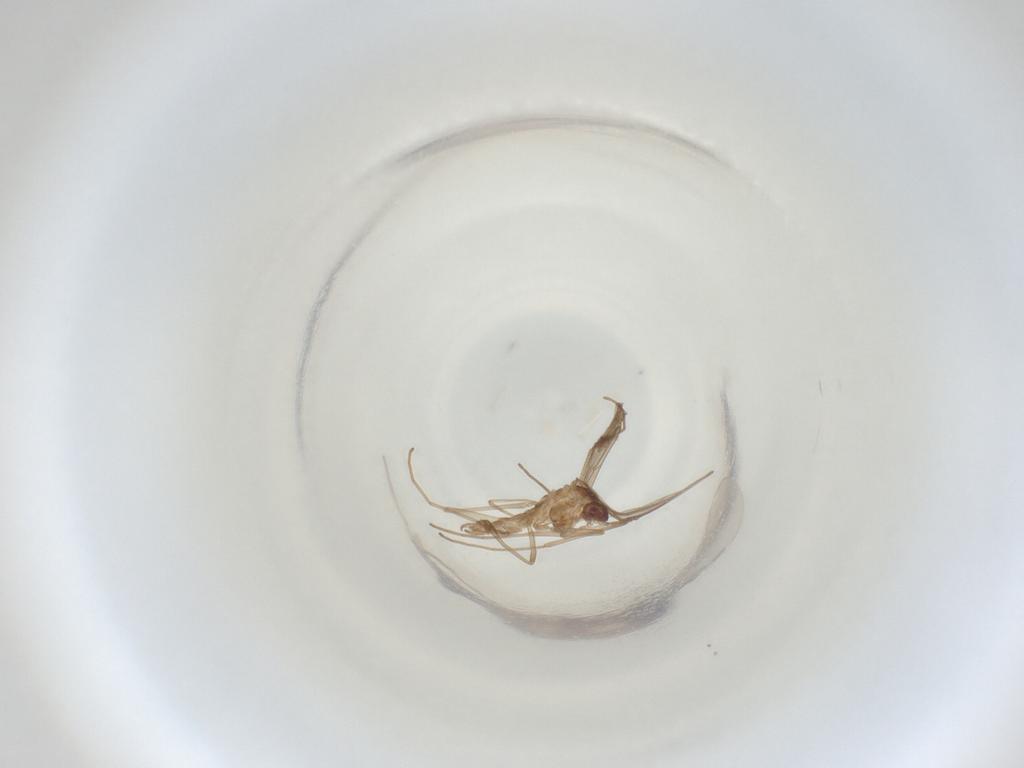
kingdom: Animalia
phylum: Arthropoda
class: Insecta
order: Diptera
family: Cecidomyiidae
